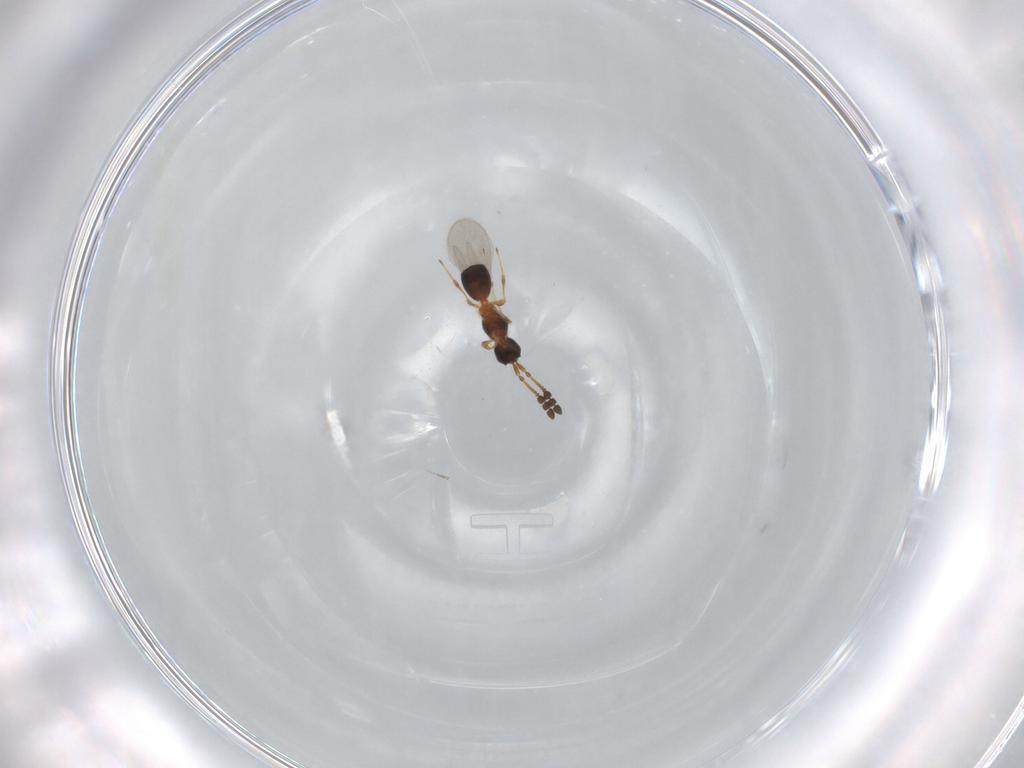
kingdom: Animalia
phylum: Arthropoda
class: Insecta
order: Hymenoptera
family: Diapriidae
